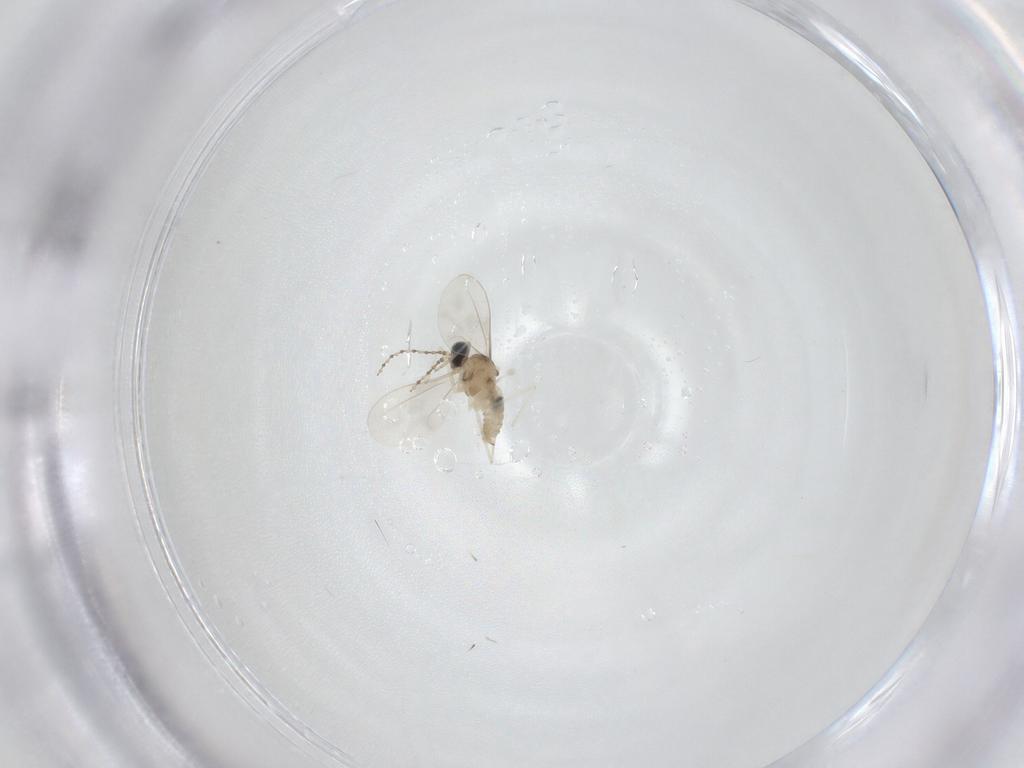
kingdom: Animalia
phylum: Arthropoda
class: Insecta
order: Diptera
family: Cecidomyiidae
